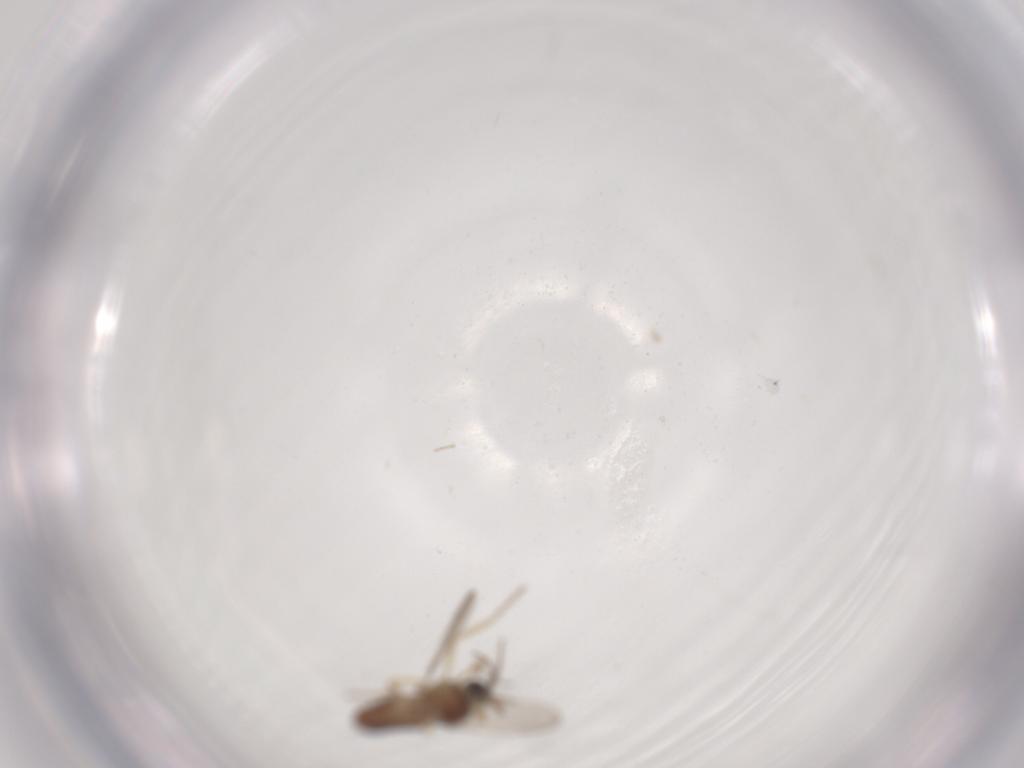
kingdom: Animalia
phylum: Arthropoda
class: Insecta
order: Diptera
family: Ceratopogonidae
